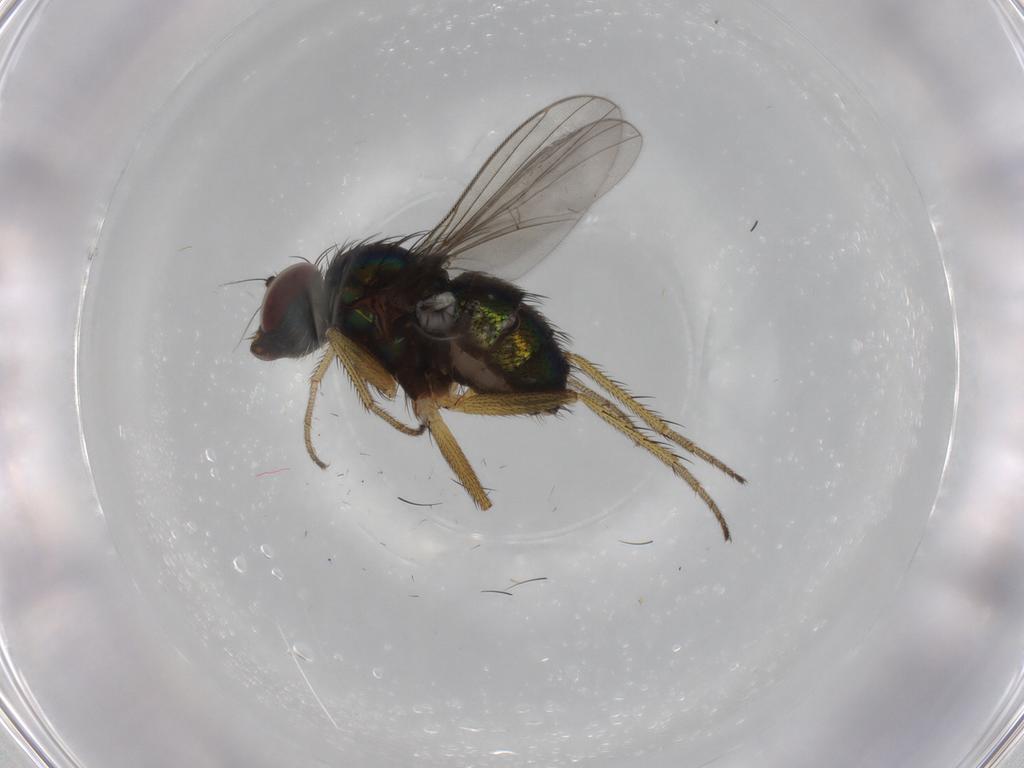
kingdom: Animalia
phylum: Arthropoda
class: Insecta
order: Diptera
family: Dolichopodidae
